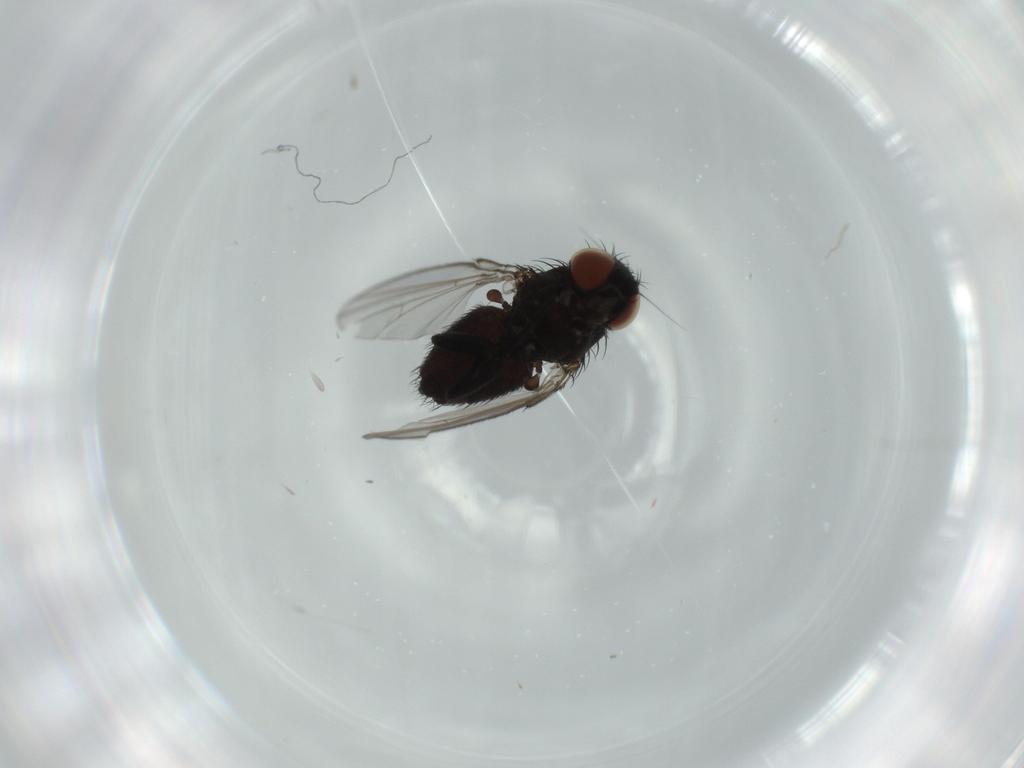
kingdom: Animalia
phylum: Arthropoda
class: Insecta
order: Diptera
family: Milichiidae
